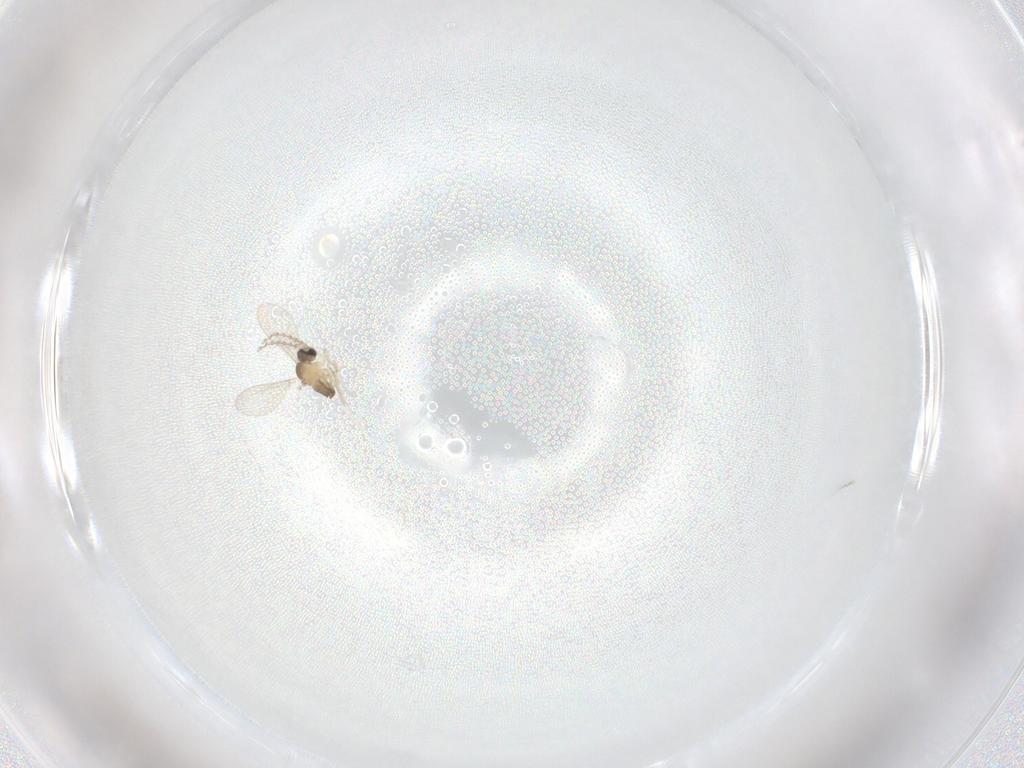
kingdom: Animalia
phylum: Arthropoda
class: Insecta
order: Diptera
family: Cecidomyiidae
